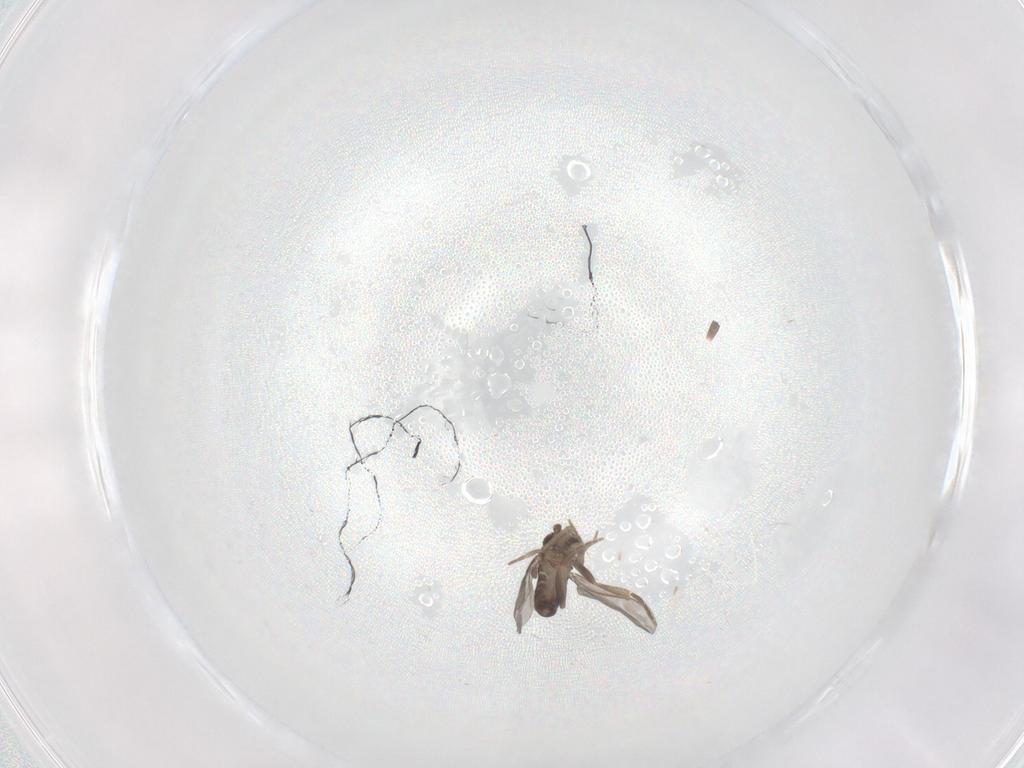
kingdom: Animalia
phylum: Arthropoda
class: Insecta
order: Diptera
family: Chironomidae
